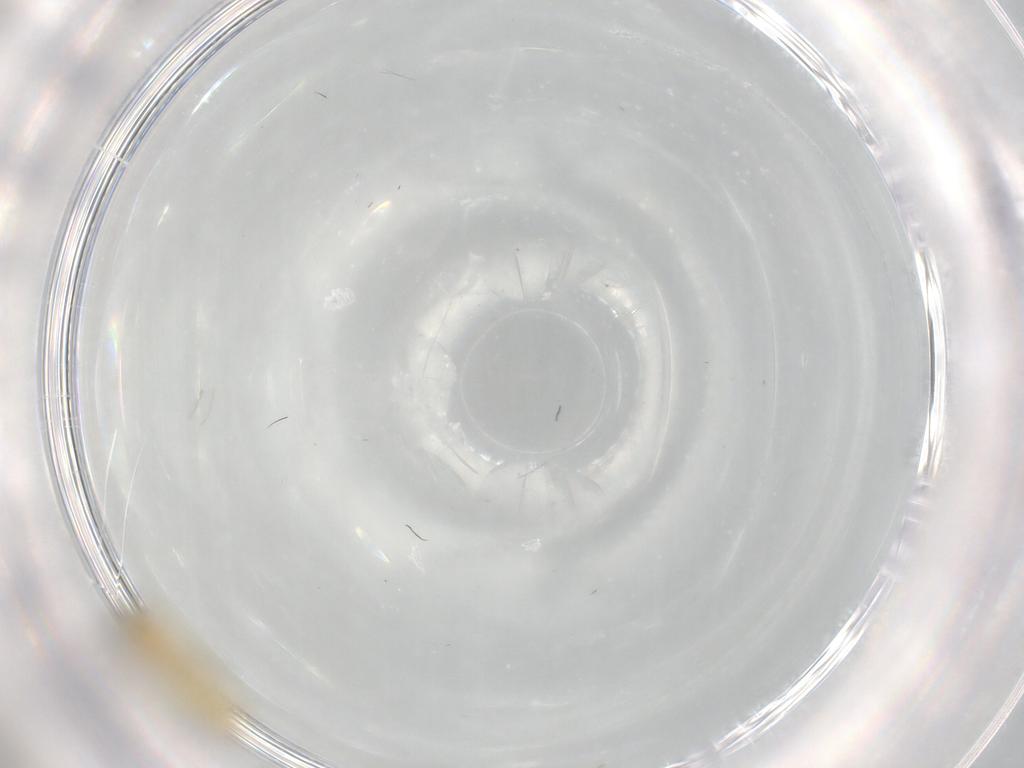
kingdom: Animalia
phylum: Arthropoda
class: Insecta
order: Diptera
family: Chironomidae
